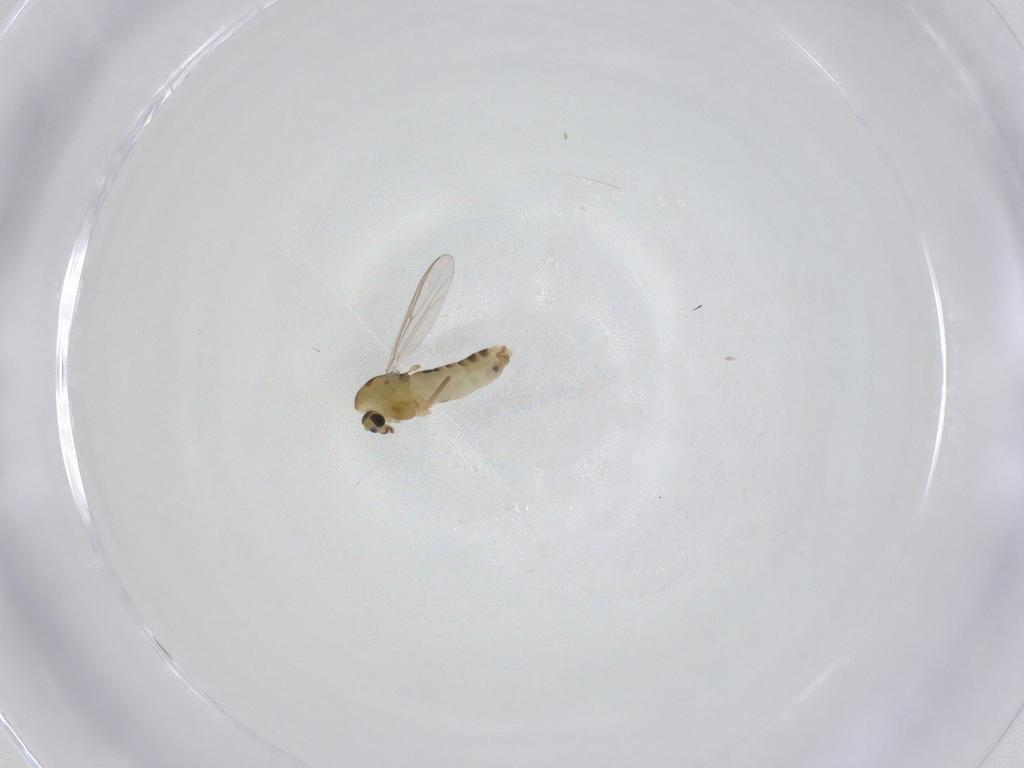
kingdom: Animalia
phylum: Arthropoda
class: Insecta
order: Diptera
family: Chironomidae
